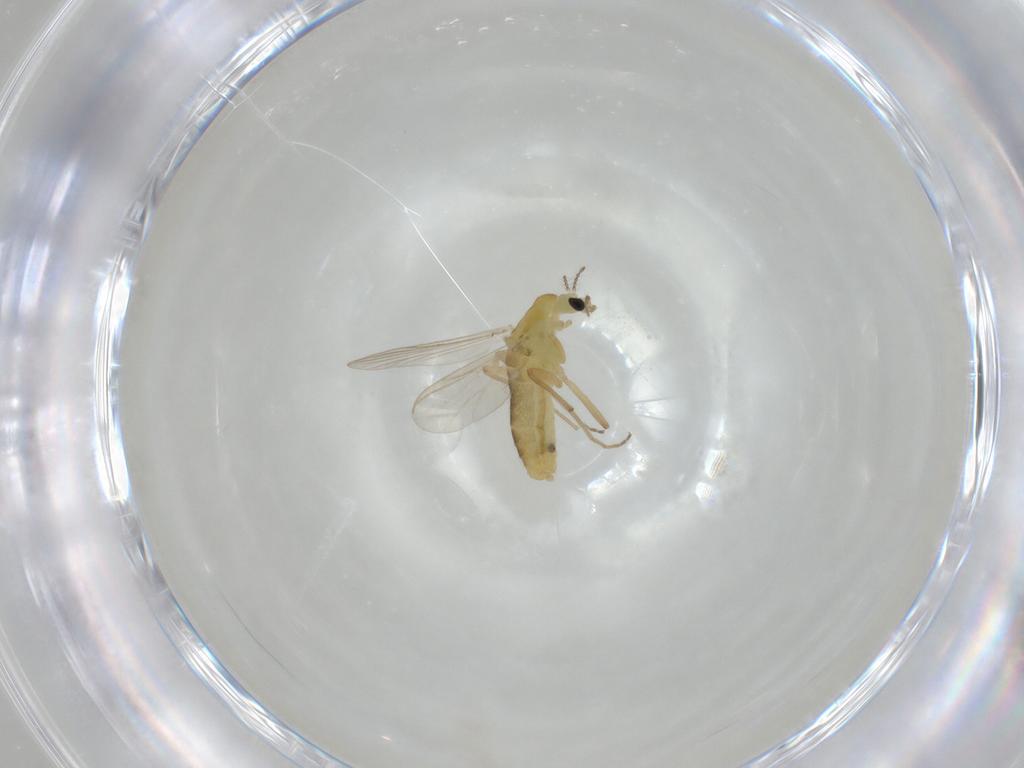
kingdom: Animalia
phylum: Arthropoda
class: Insecta
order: Diptera
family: Chironomidae
